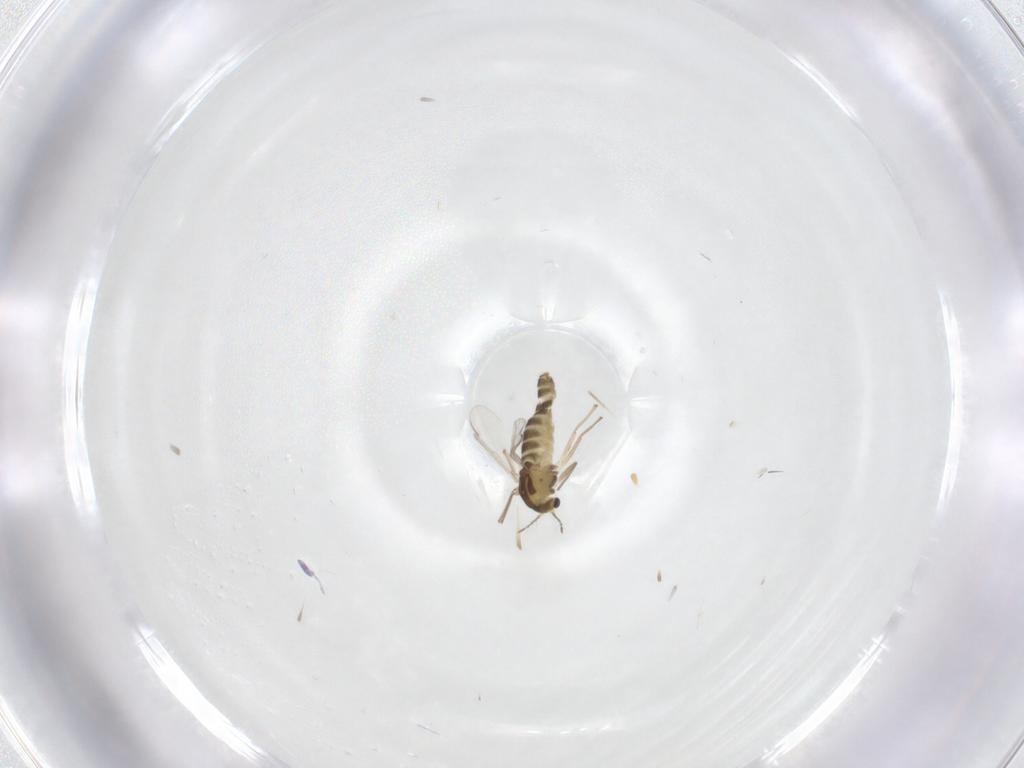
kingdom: Animalia
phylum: Arthropoda
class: Insecta
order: Diptera
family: Chironomidae
